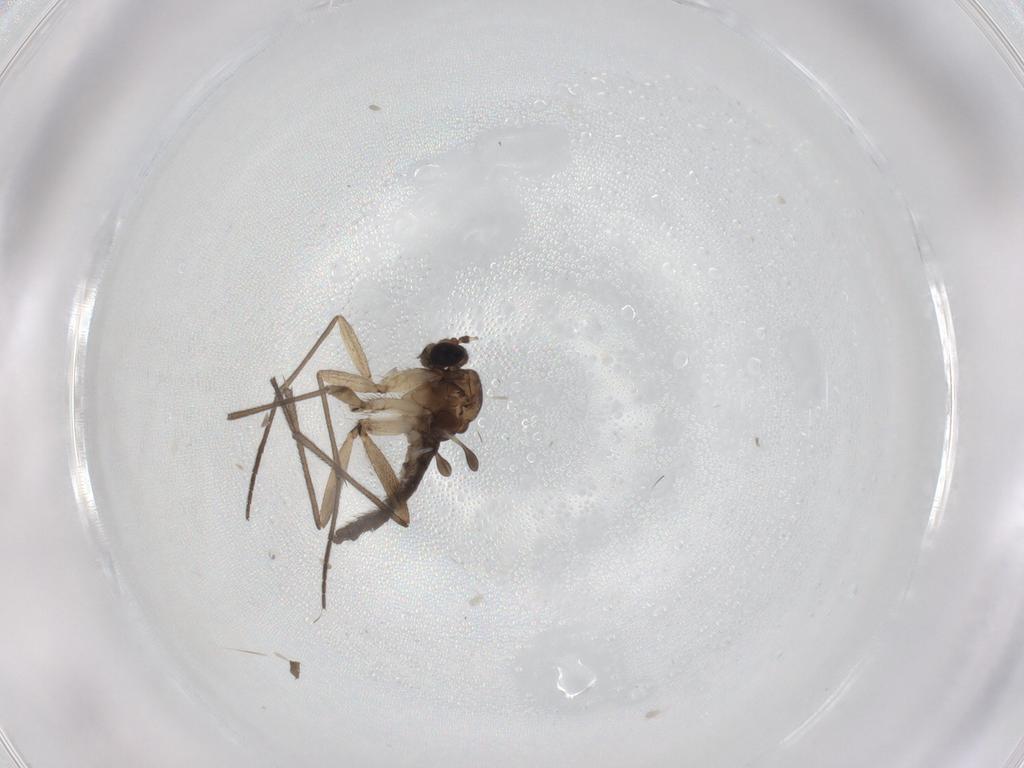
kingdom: Animalia
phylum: Arthropoda
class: Insecta
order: Diptera
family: Sciaridae
